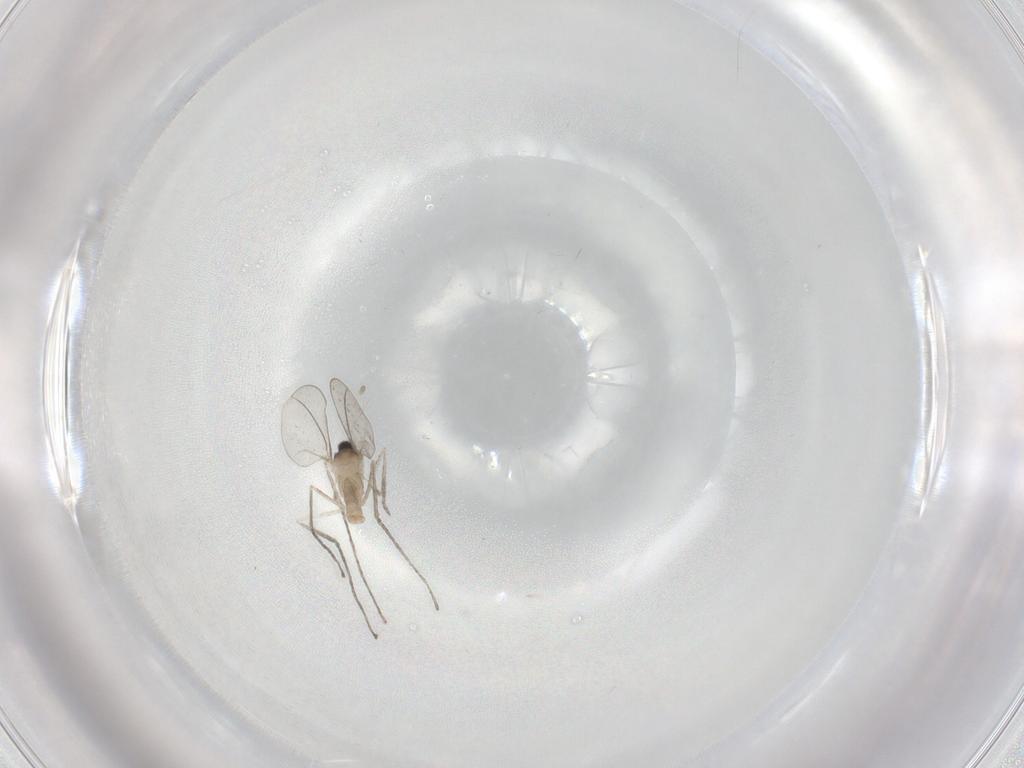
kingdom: Animalia
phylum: Arthropoda
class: Insecta
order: Diptera
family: Cecidomyiidae
